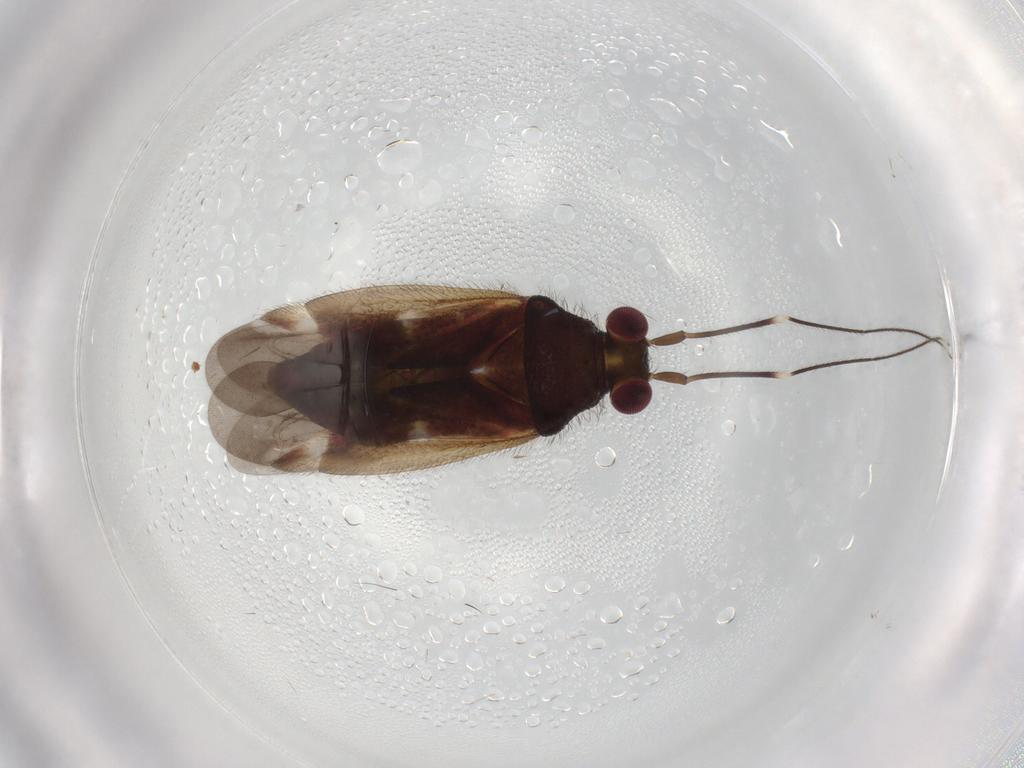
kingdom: Animalia
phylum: Arthropoda
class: Insecta
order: Hemiptera
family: Miridae
